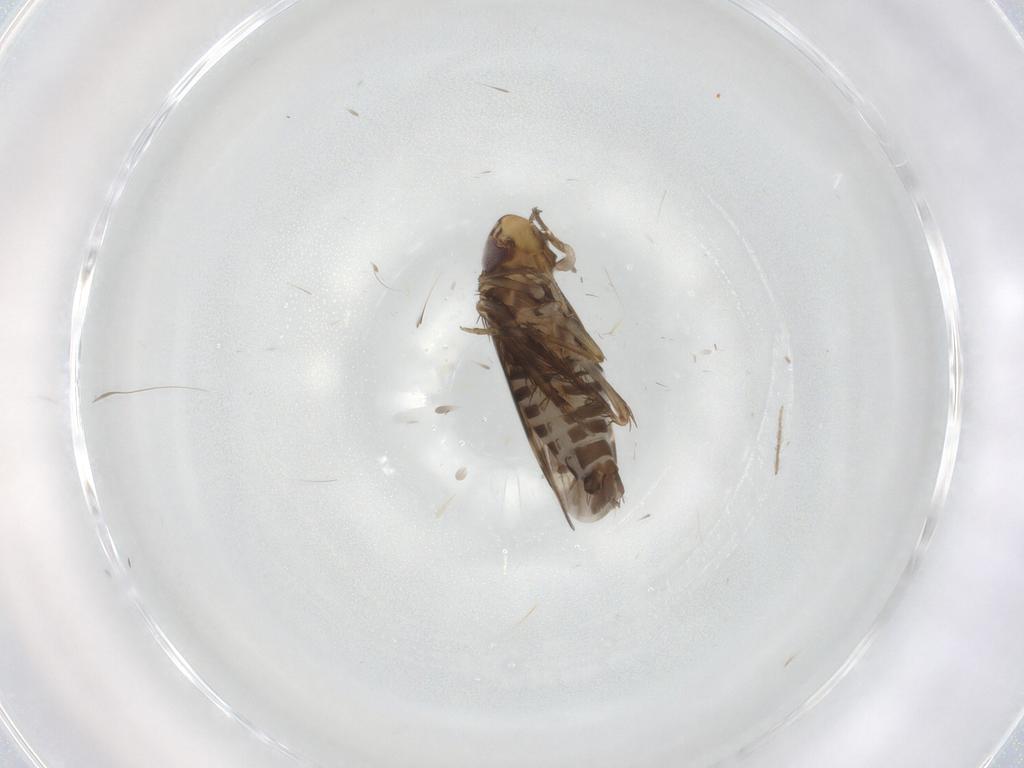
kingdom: Animalia
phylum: Arthropoda
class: Insecta
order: Hemiptera
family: Cicadellidae
